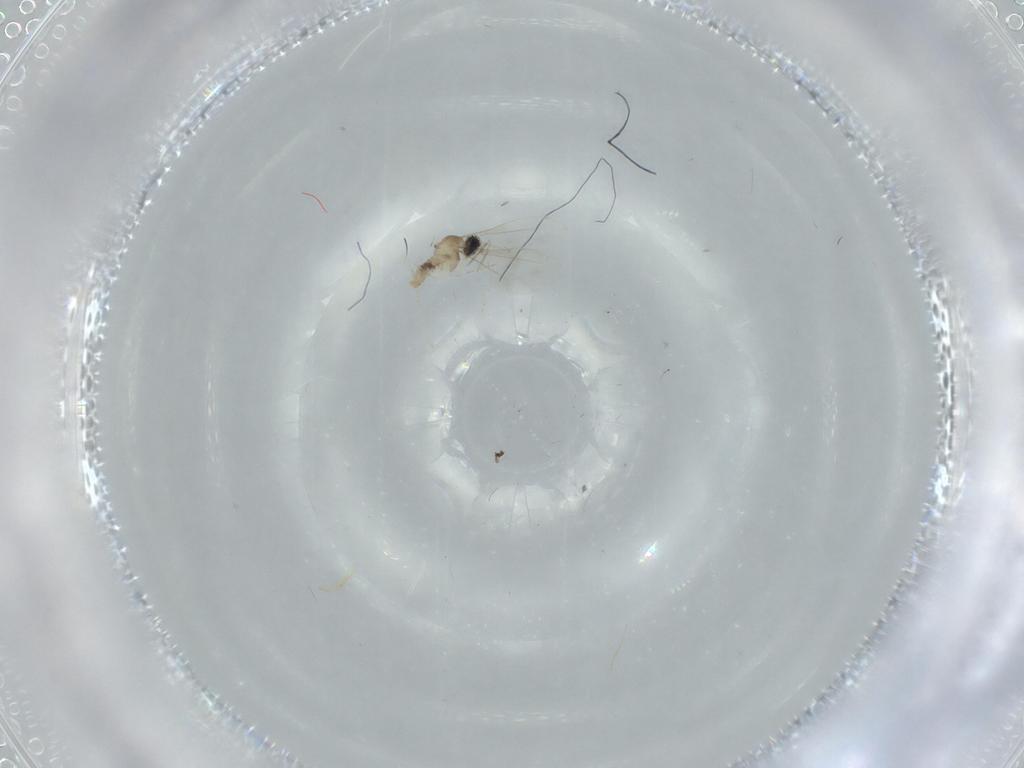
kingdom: Animalia
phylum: Arthropoda
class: Insecta
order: Diptera
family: Cecidomyiidae
